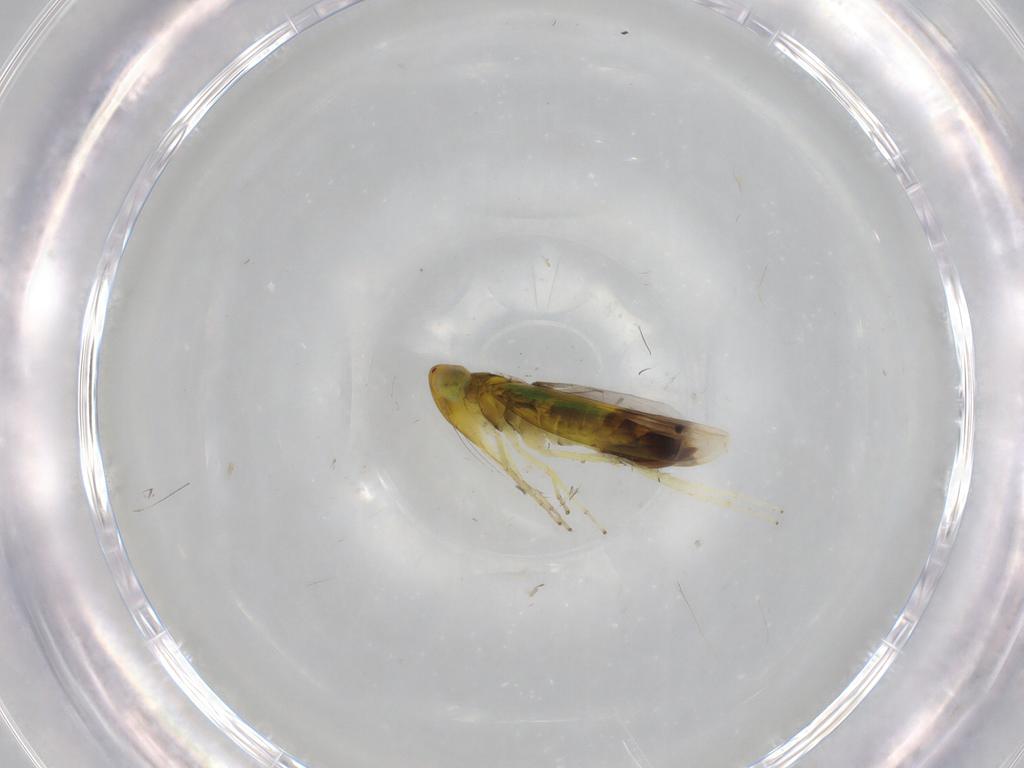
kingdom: Animalia
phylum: Arthropoda
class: Insecta
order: Hemiptera
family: Cicadellidae
